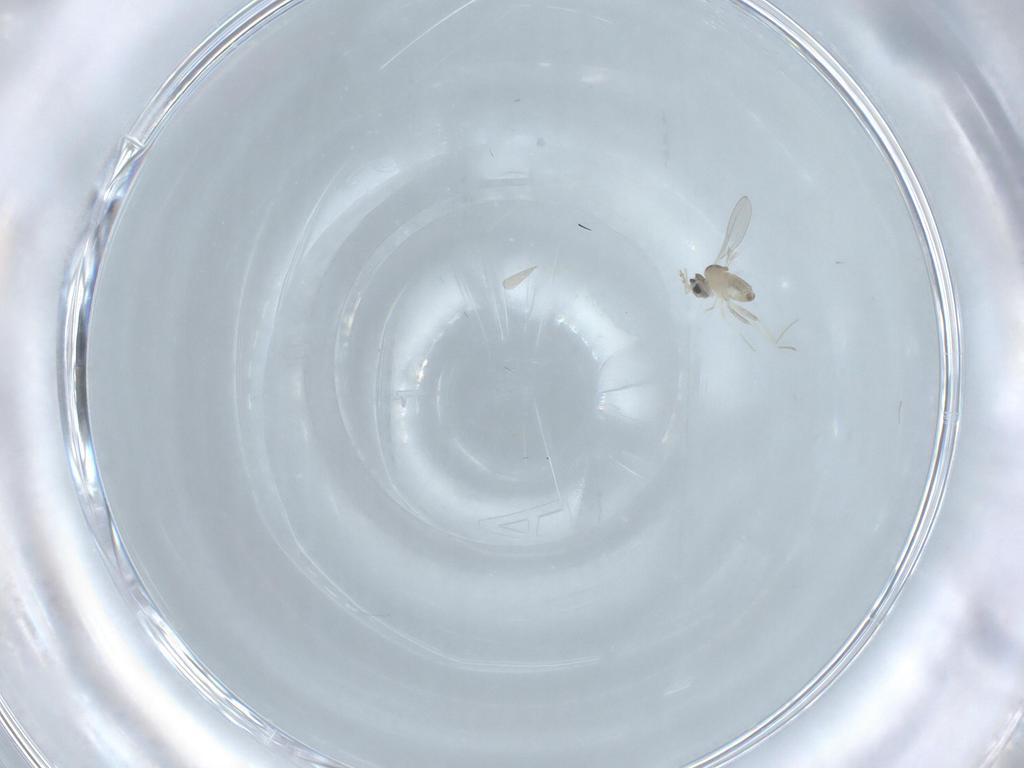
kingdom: Animalia
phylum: Arthropoda
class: Insecta
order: Diptera
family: Cecidomyiidae
